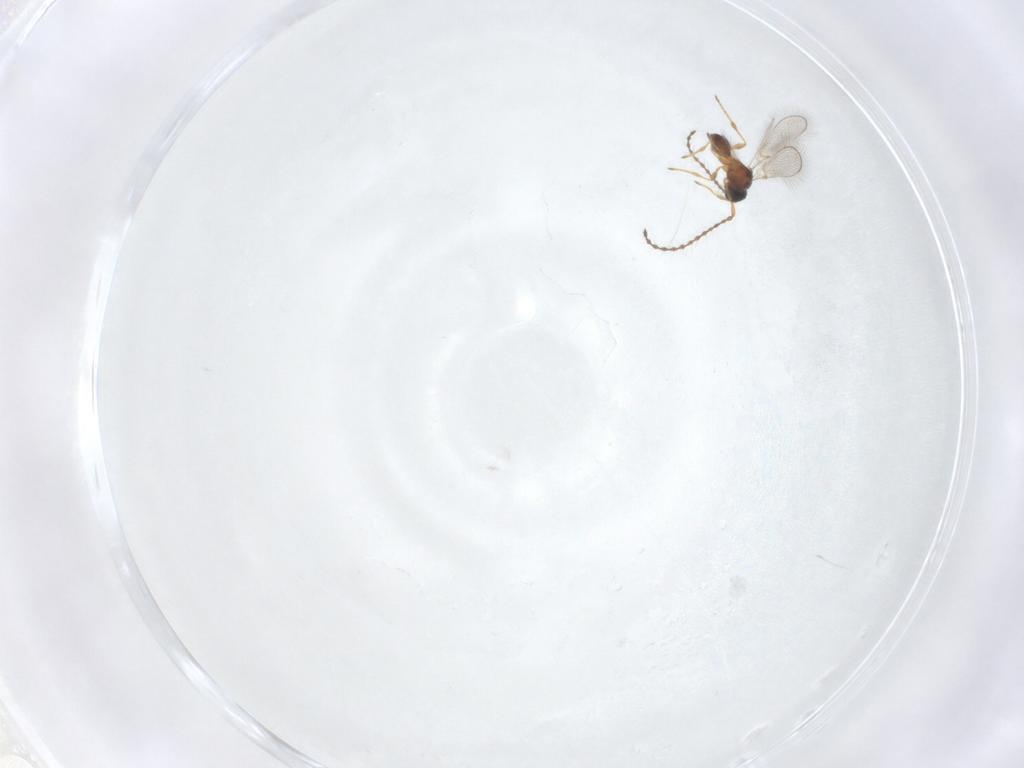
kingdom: Animalia
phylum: Arthropoda
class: Insecta
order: Hymenoptera
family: Diapriidae
